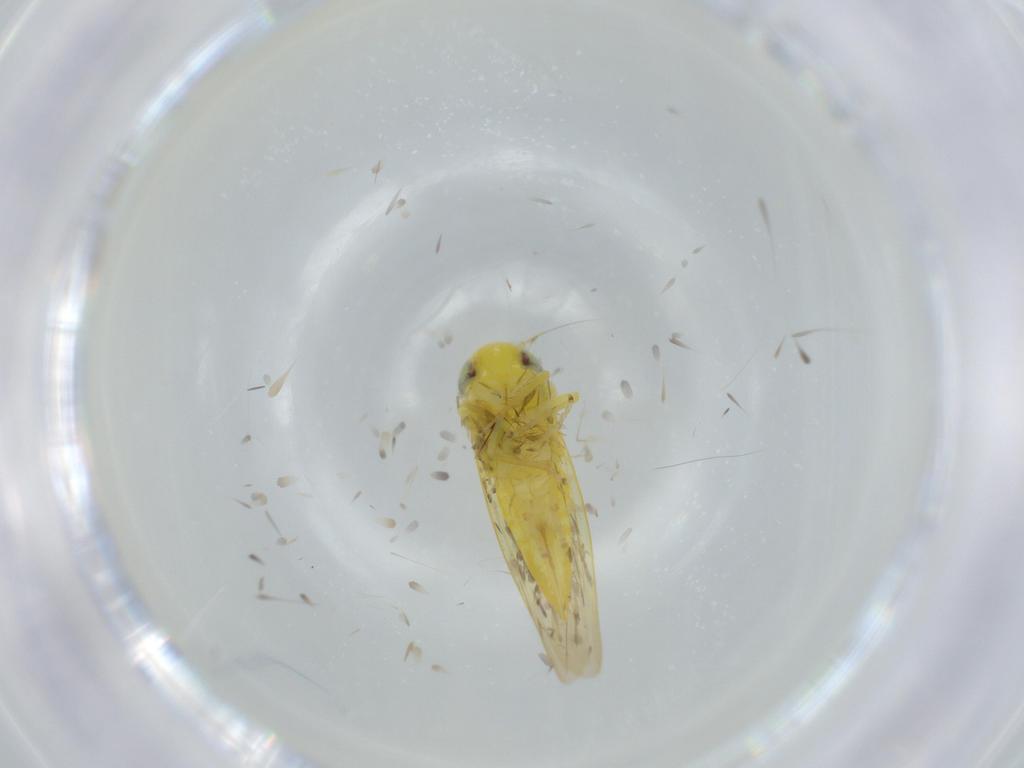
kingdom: Animalia
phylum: Arthropoda
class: Insecta
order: Hemiptera
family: Cicadellidae
